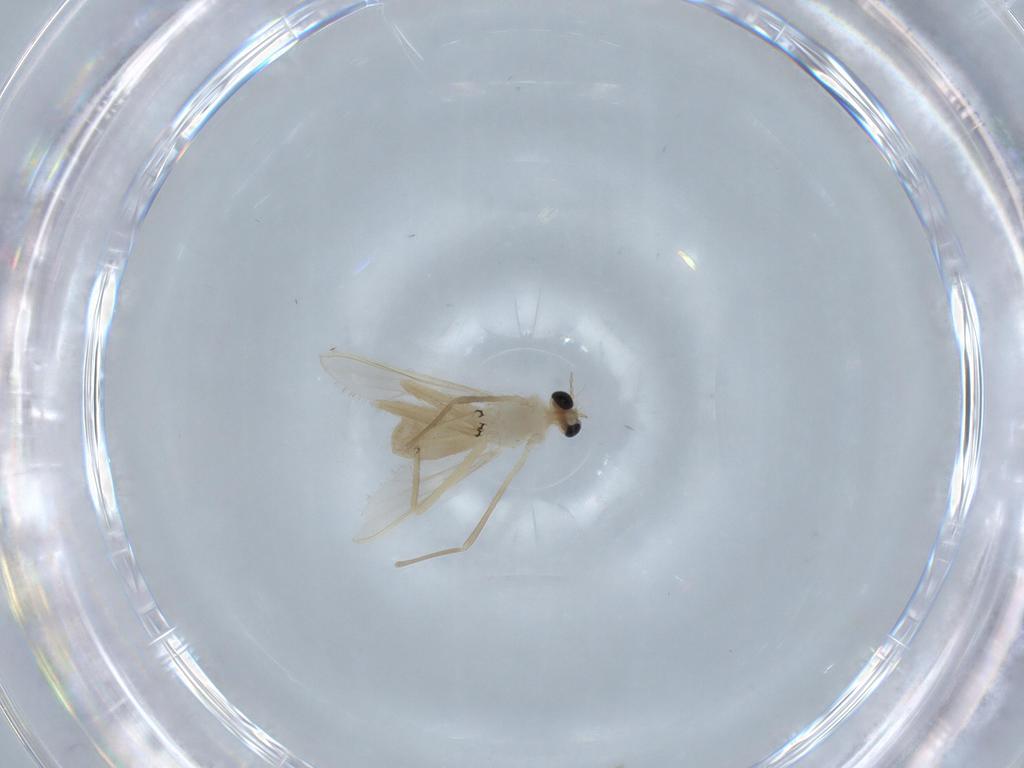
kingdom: Animalia
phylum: Arthropoda
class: Insecta
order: Diptera
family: Chironomidae
